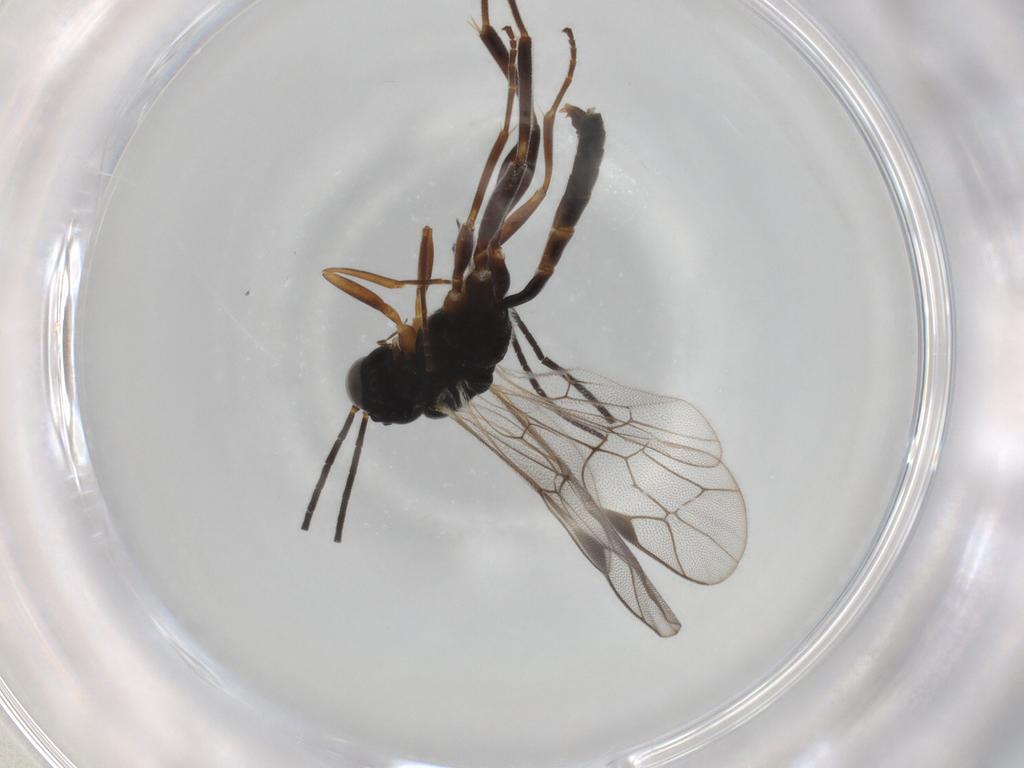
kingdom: Animalia
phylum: Arthropoda
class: Insecta
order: Hymenoptera
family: Ichneumonidae
